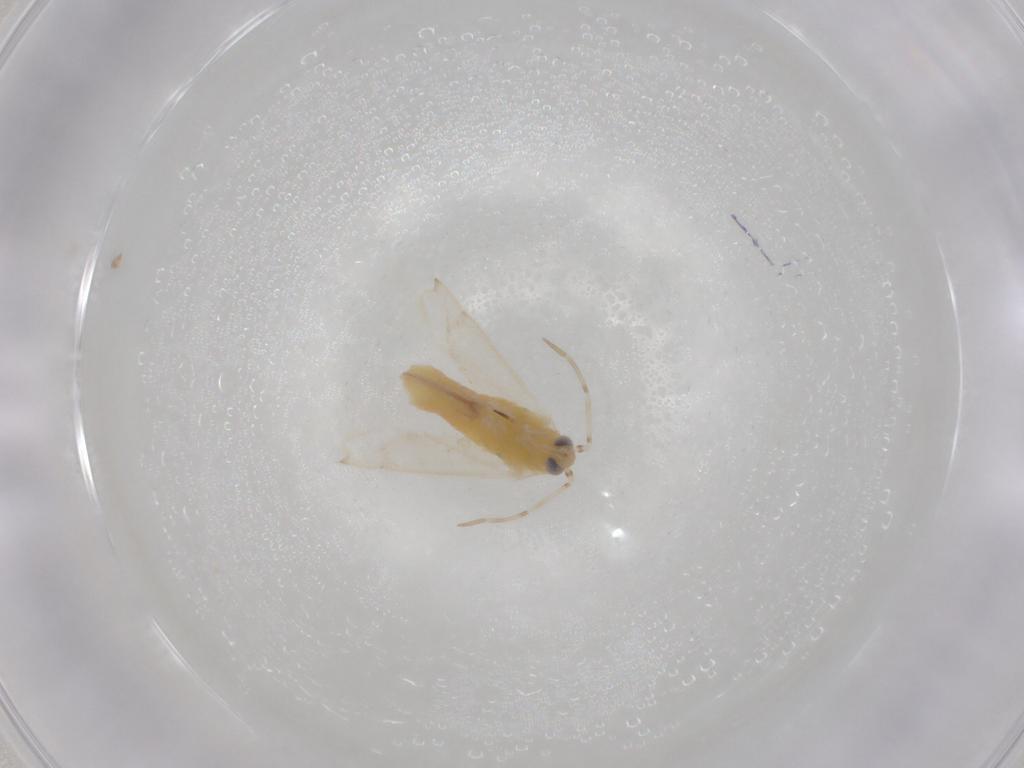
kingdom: Animalia
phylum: Arthropoda
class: Insecta
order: Hemiptera
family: Miridae
